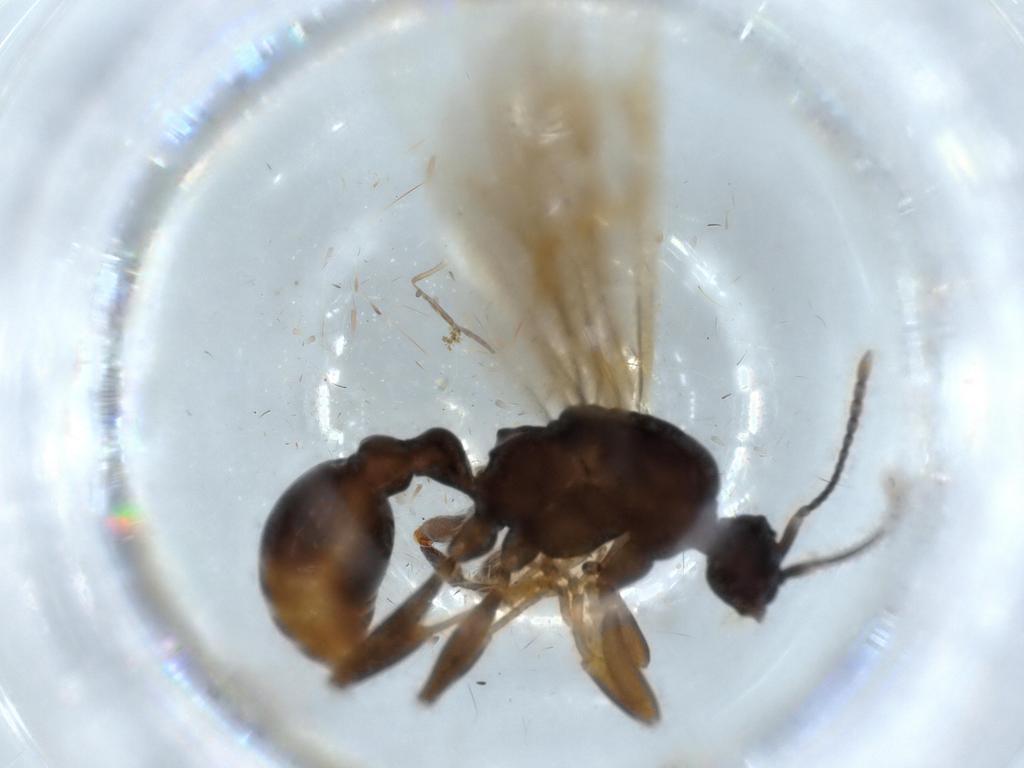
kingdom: Animalia
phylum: Arthropoda
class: Insecta
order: Hymenoptera
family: Formicidae
